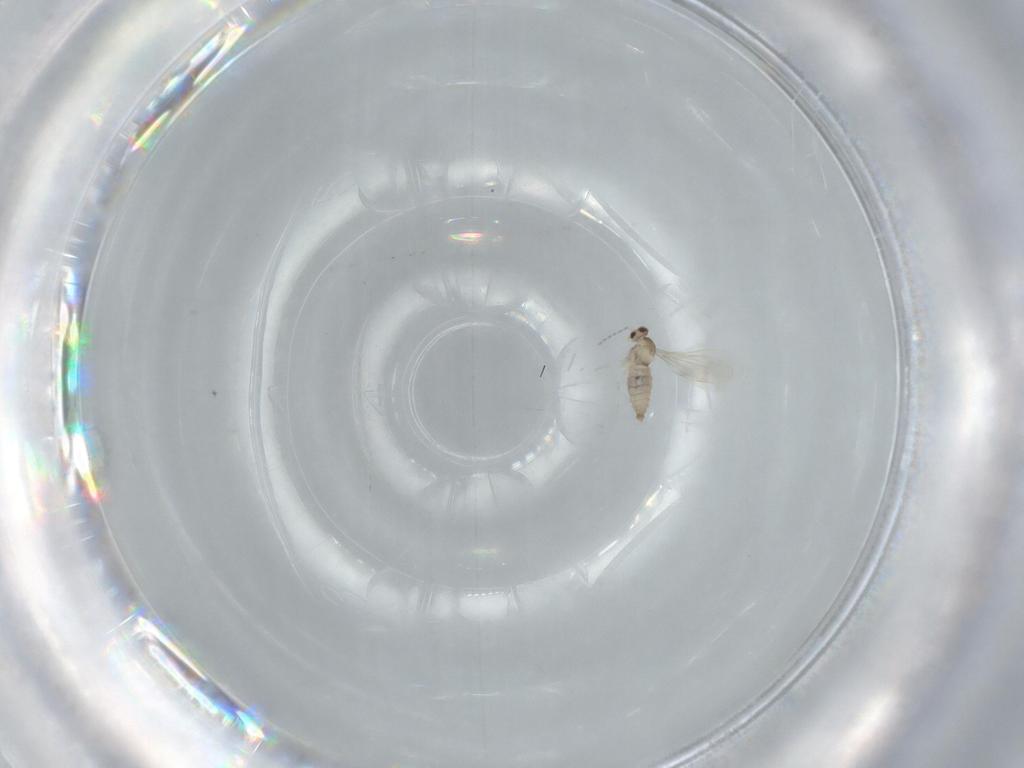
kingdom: Animalia
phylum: Arthropoda
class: Insecta
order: Diptera
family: Cecidomyiidae
